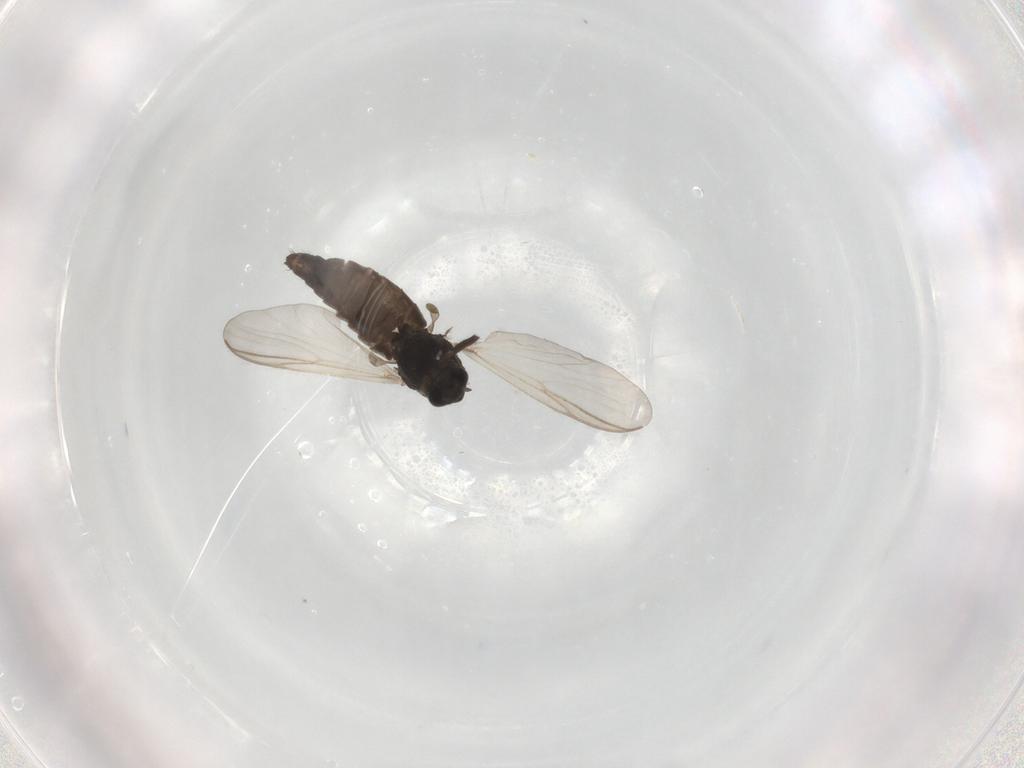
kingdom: Animalia
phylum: Arthropoda
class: Insecta
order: Diptera
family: Chironomidae
